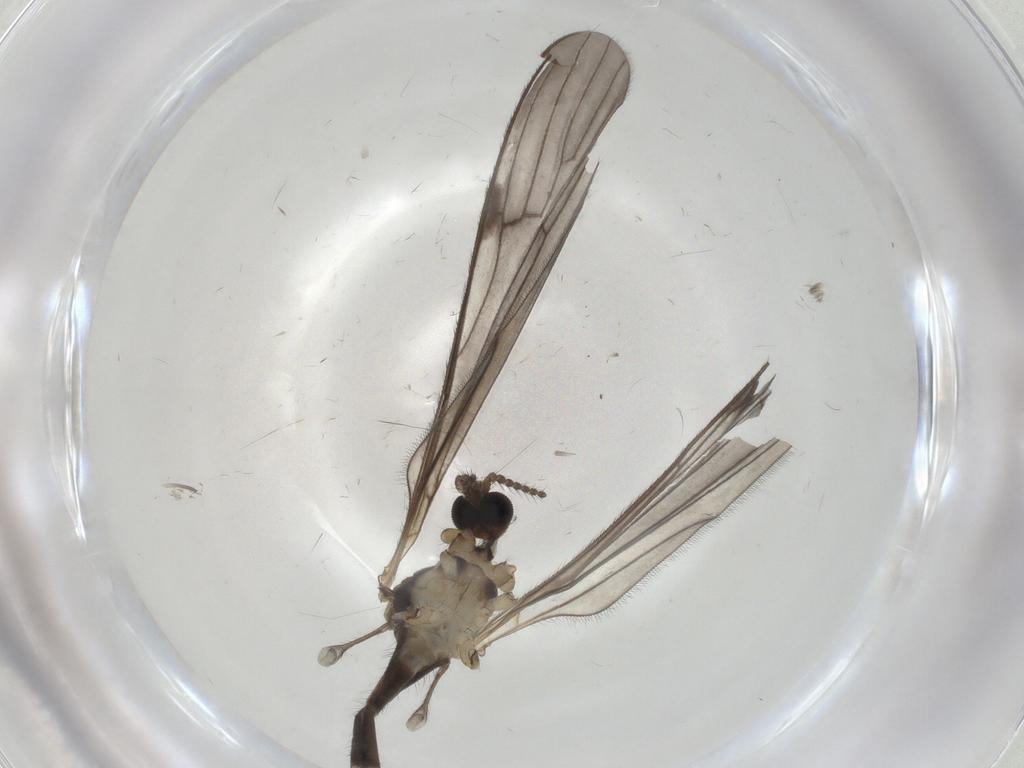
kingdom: Animalia
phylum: Arthropoda
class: Insecta
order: Diptera
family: Limoniidae
